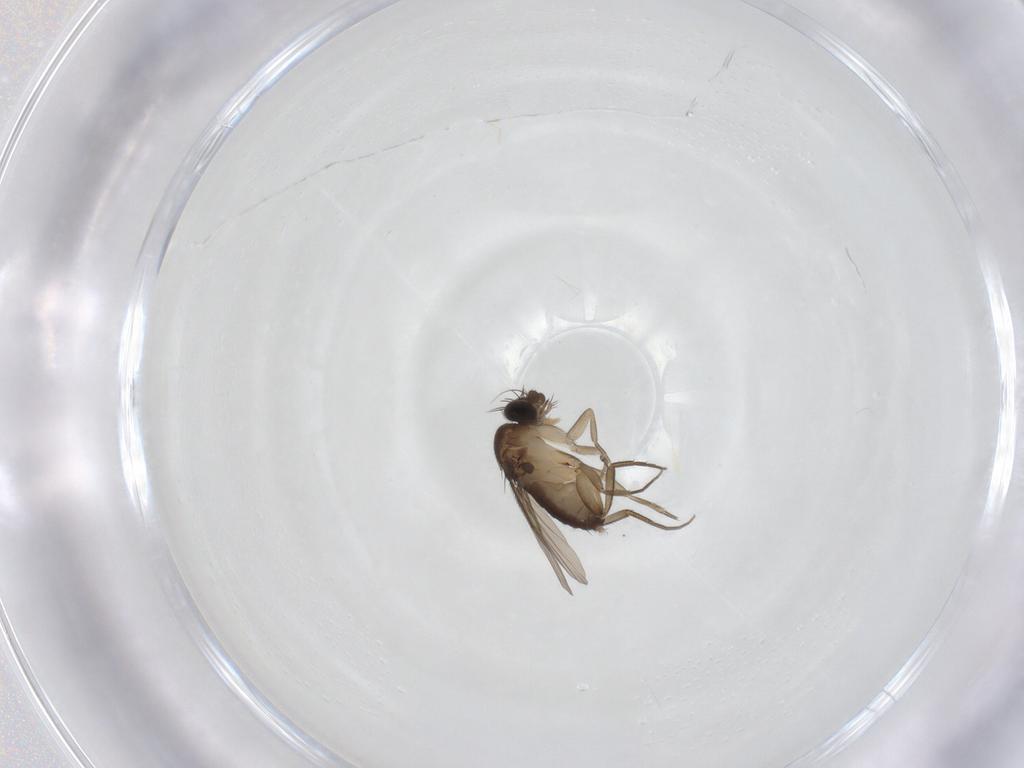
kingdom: Animalia
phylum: Arthropoda
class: Insecta
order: Diptera
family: Phoridae
